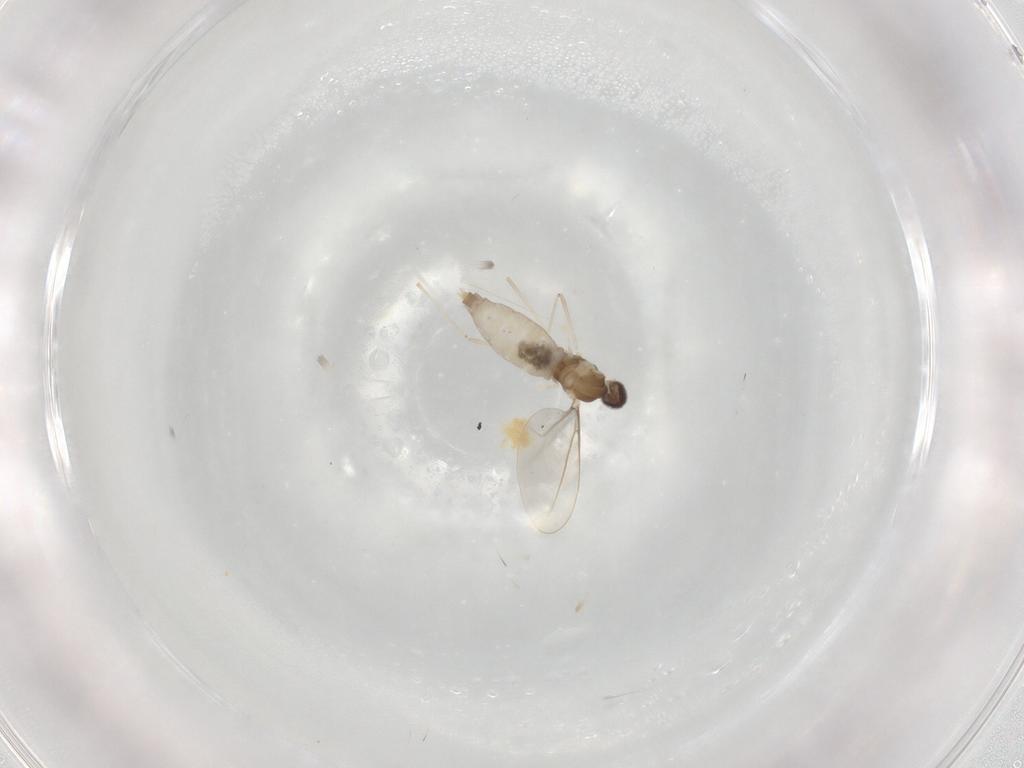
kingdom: Animalia
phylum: Arthropoda
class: Insecta
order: Diptera
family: Cecidomyiidae
